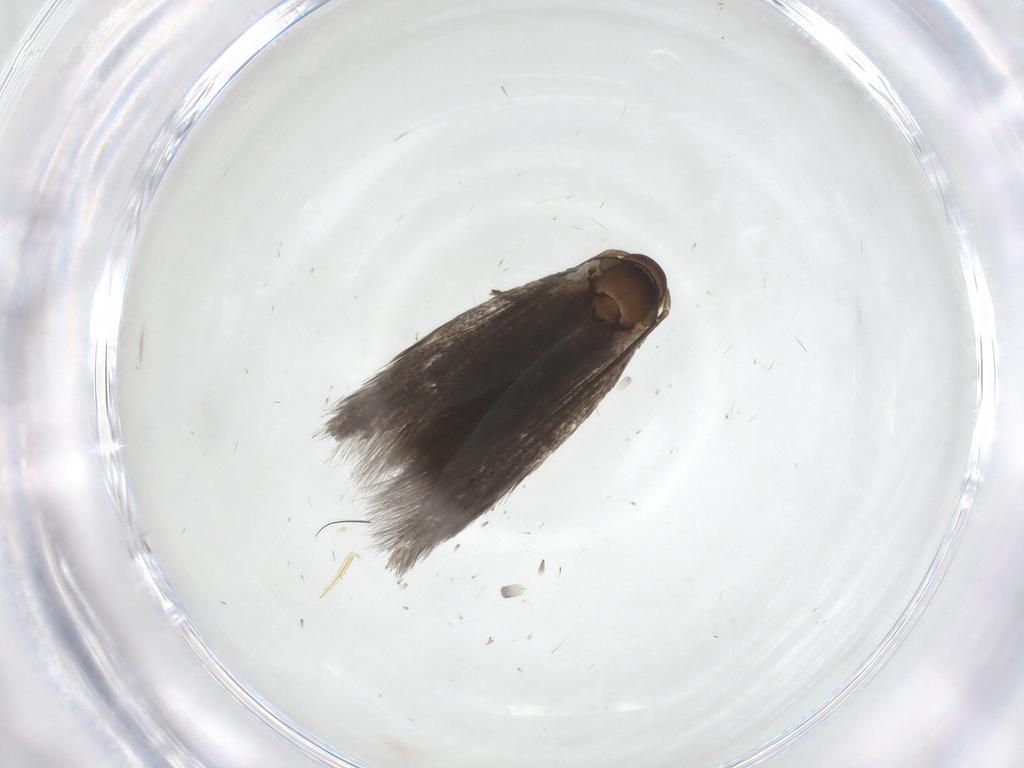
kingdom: Animalia
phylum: Arthropoda
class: Insecta
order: Lepidoptera
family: Elachistidae
